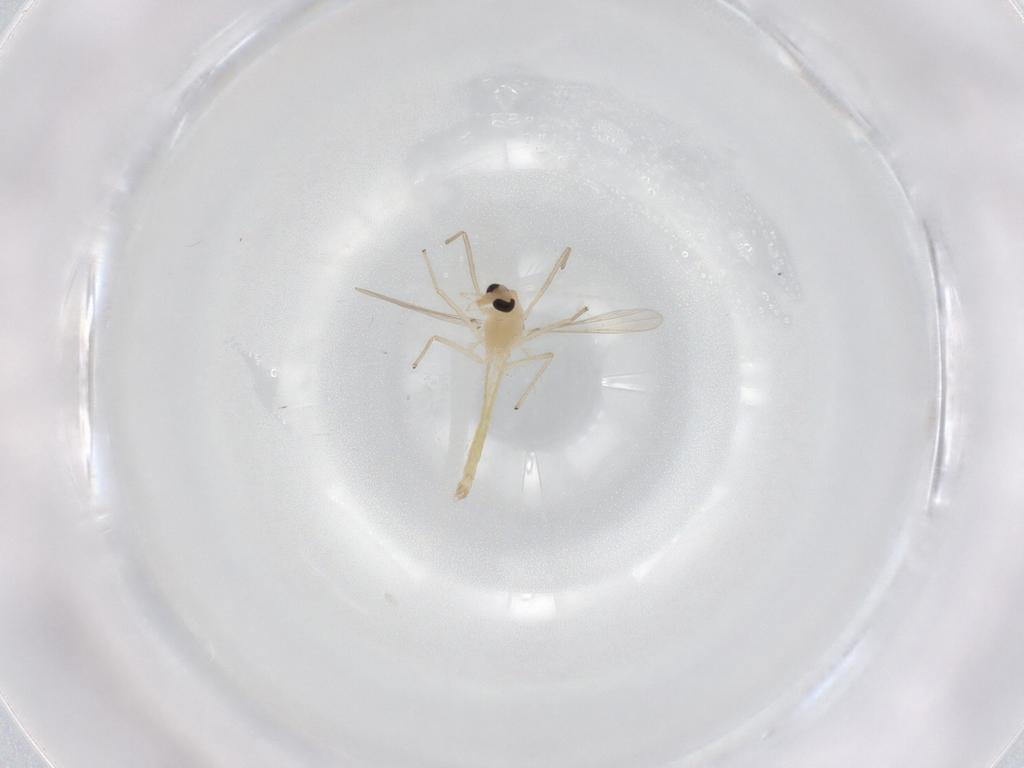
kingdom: Animalia
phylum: Arthropoda
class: Insecta
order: Diptera
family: Chironomidae
